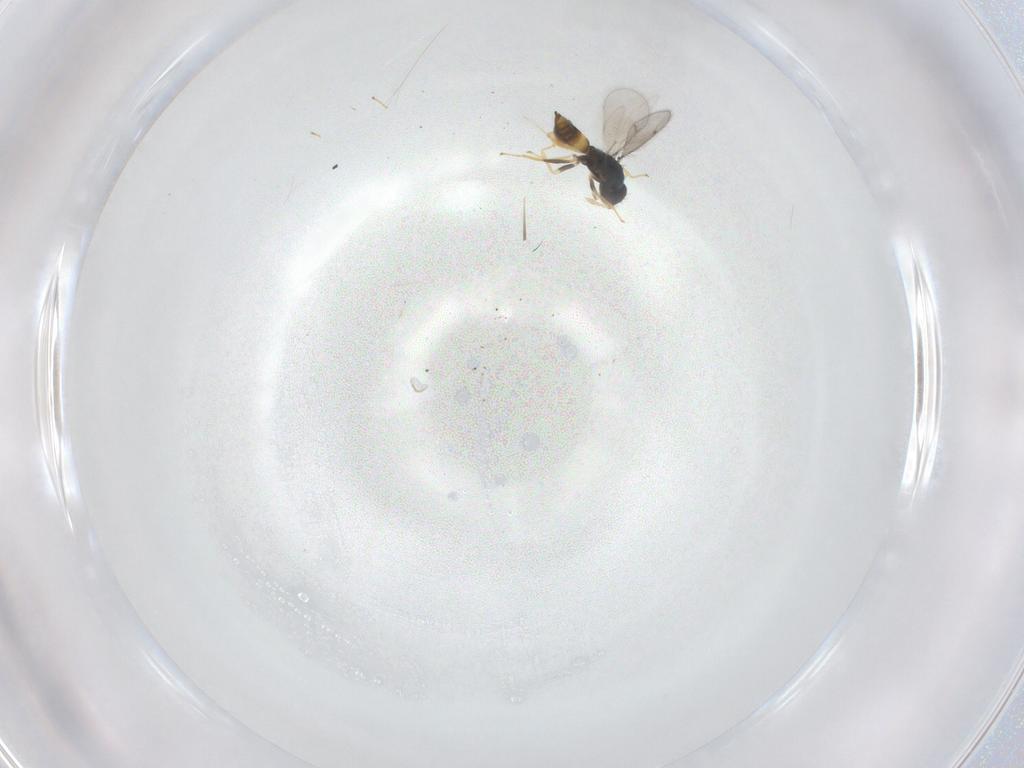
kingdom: Animalia
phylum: Arthropoda
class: Insecta
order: Hymenoptera
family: Eulophidae
